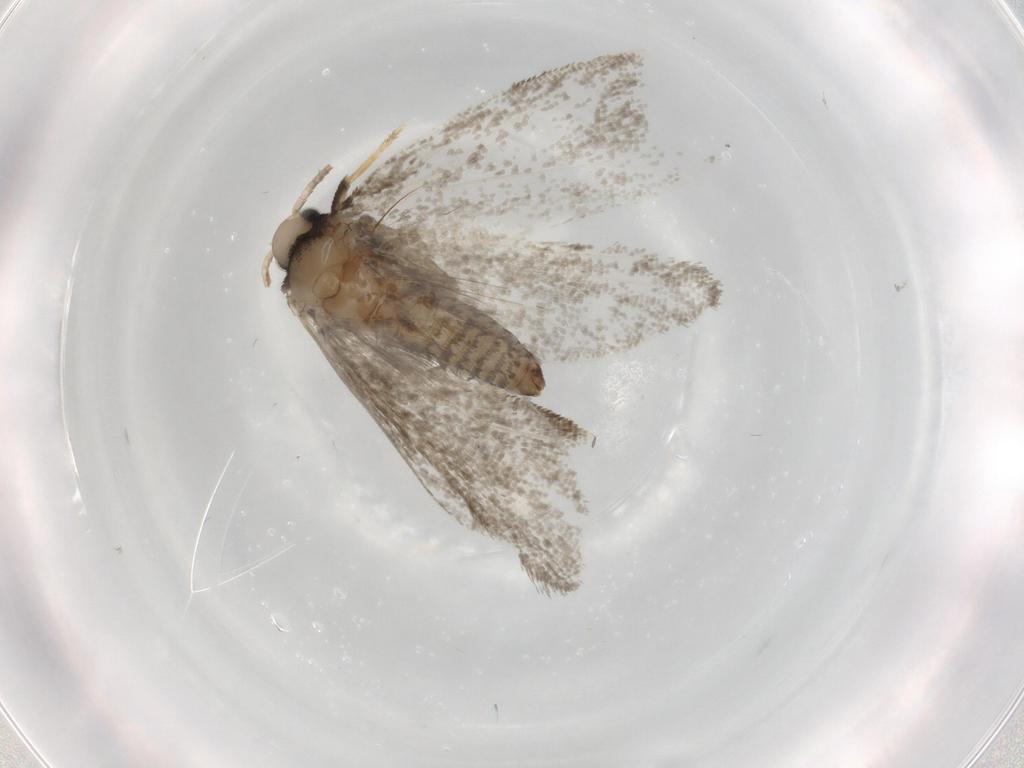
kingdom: Animalia
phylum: Arthropoda
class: Insecta
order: Lepidoptera
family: Psychidae
